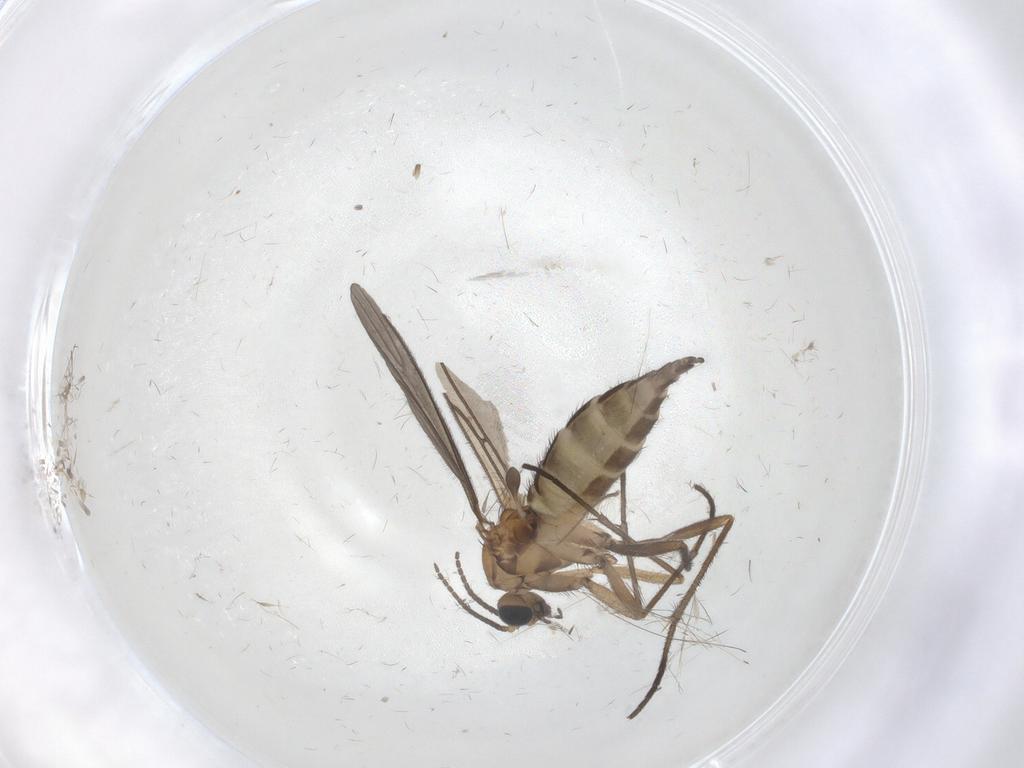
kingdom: Animalia
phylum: Arthropoda
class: Insecta
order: Diptera
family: Sciaridae
